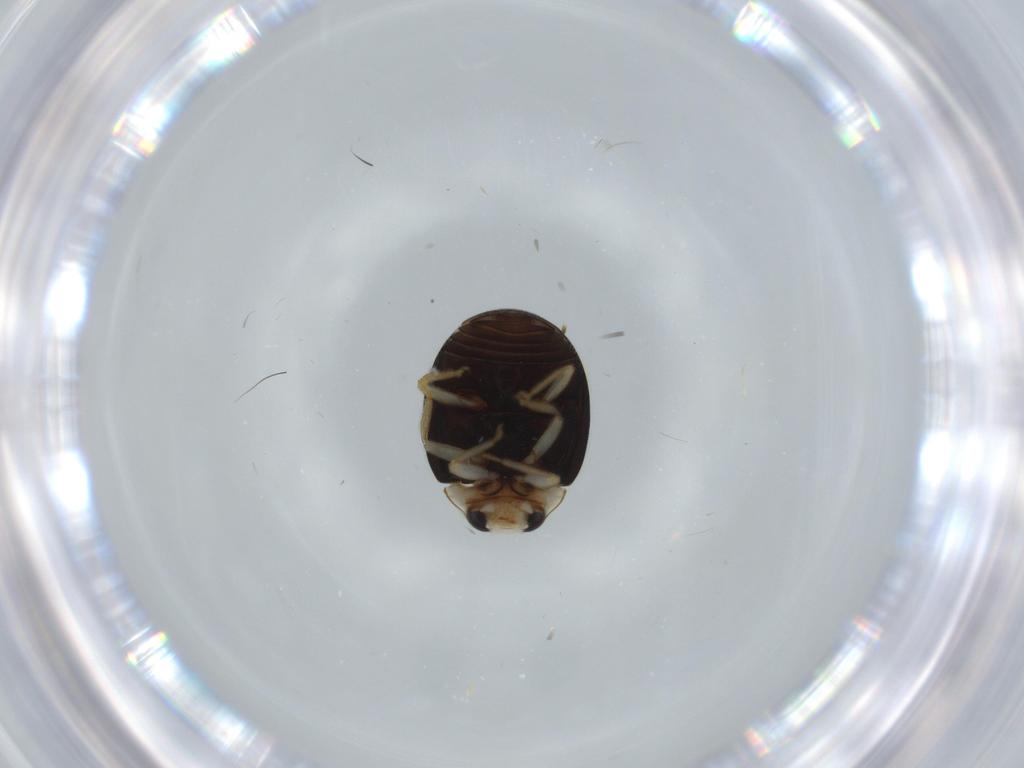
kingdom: Animalia
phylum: Arthropoda
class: Insecta
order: Coleoptera
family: Coccinellidae
